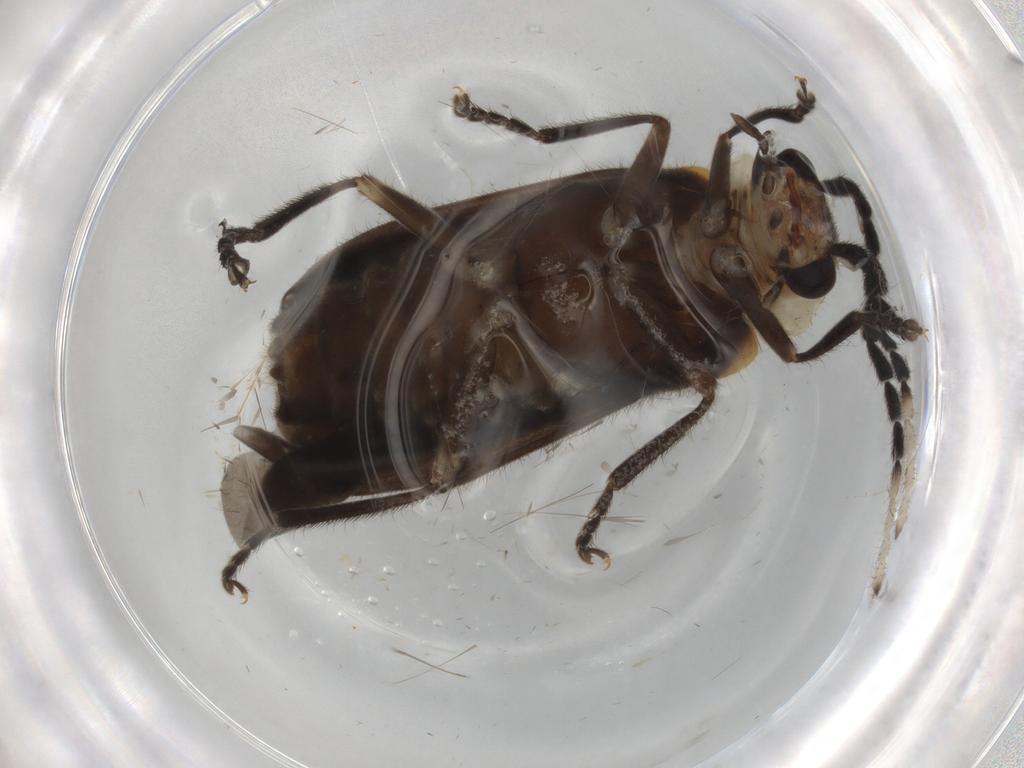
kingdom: Animalia
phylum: Arthropoda
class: Insecta
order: Coleoptera
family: Cantharidae
